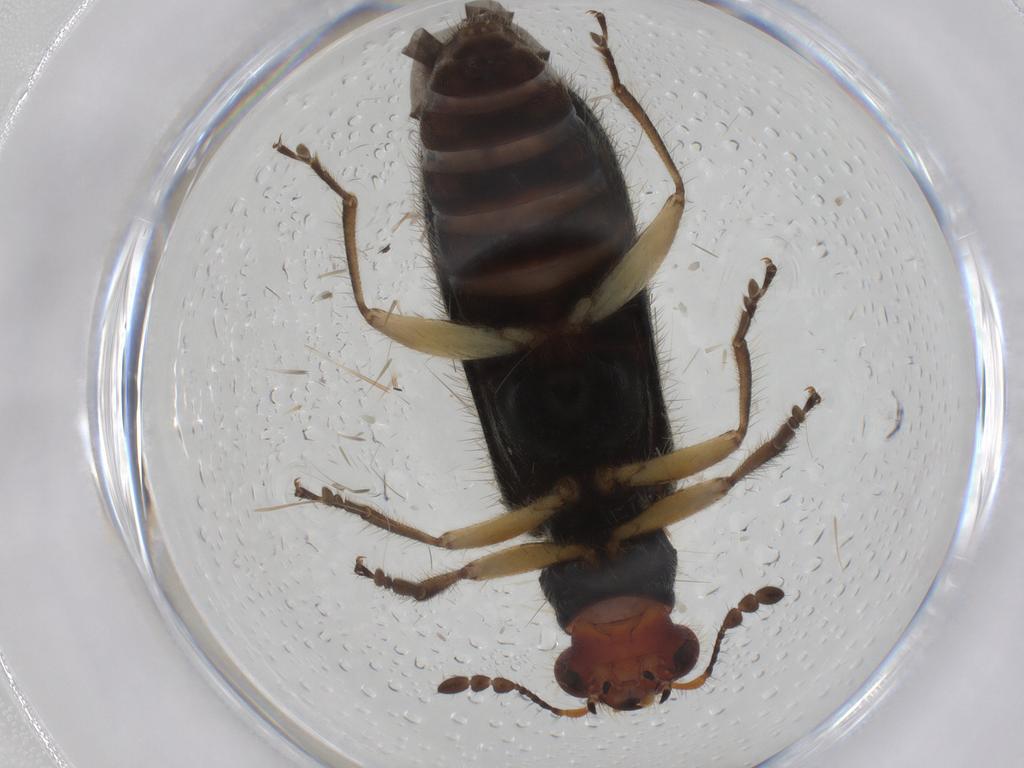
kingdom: Animalia
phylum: Arthropoda
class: Insecta
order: Coleoptera
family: Cleridae
